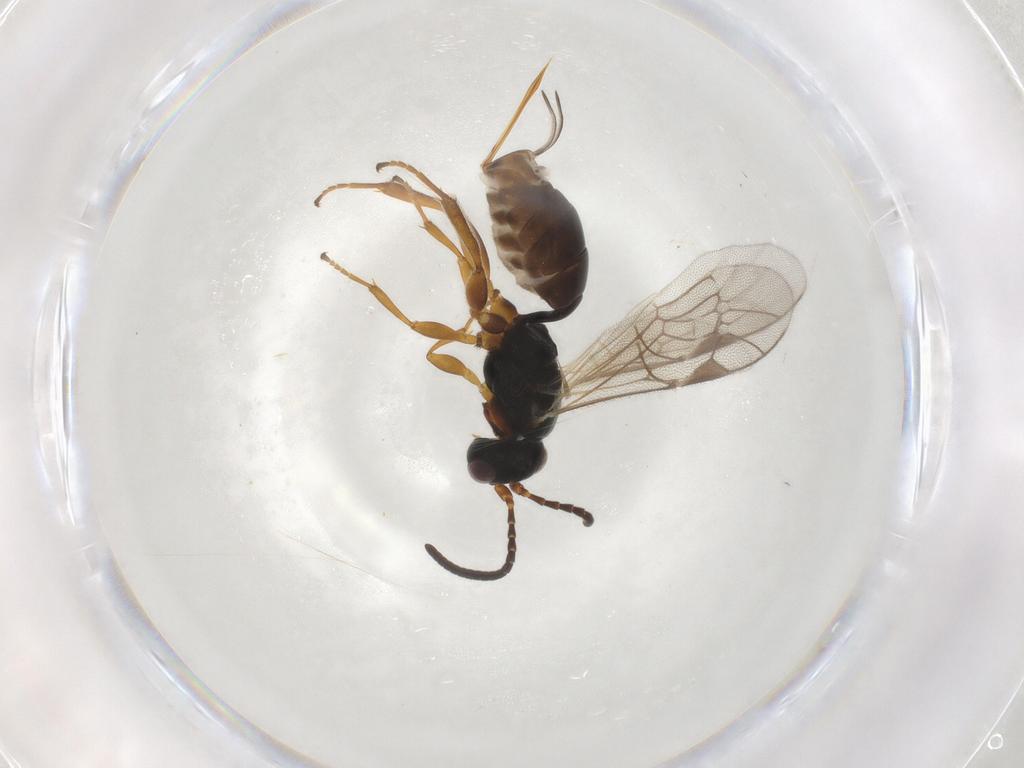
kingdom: Animalia
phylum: Arthropoda
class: Insecta
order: Hymenoptera
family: Ichneumonidae
